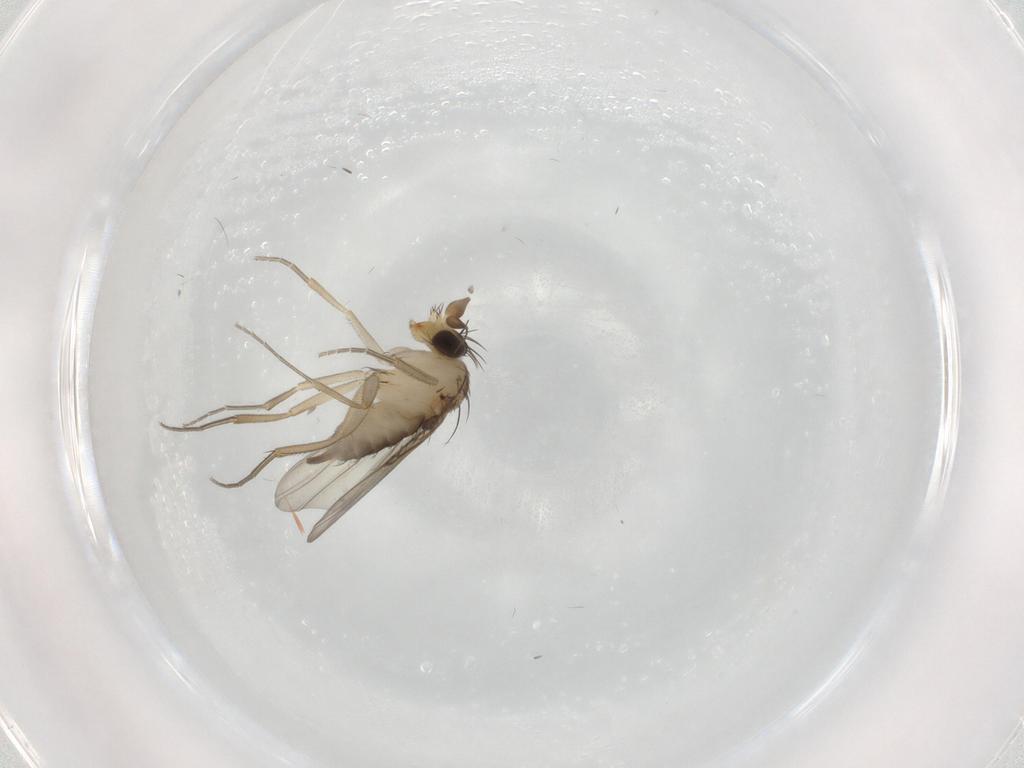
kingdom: Animalia
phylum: Arthropoda
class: Insecta
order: Diptera
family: Phoridae
